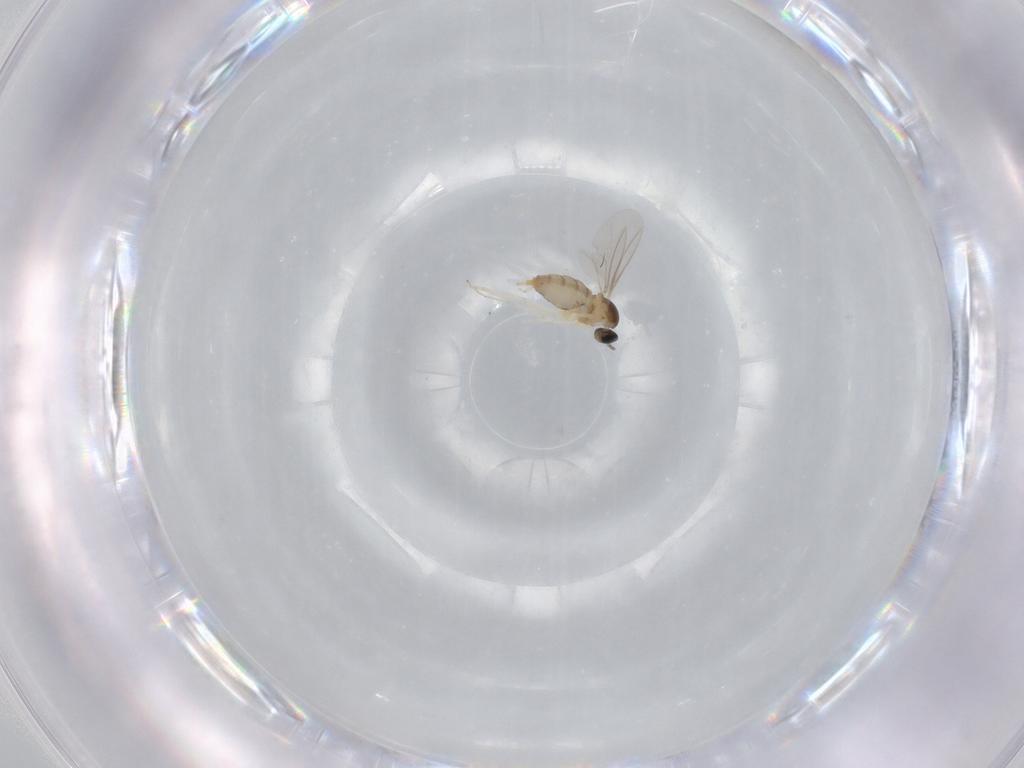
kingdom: Animalia
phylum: Arthropoda
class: Insecta
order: Diptera
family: Cecidomyiidae
